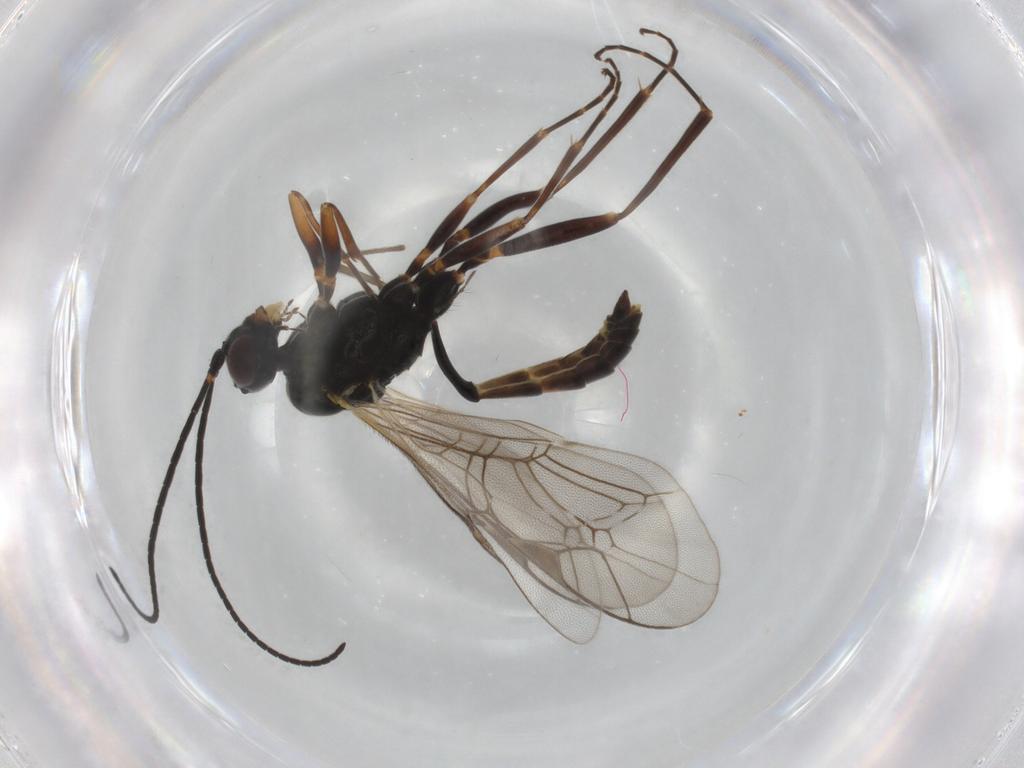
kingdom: Animalia
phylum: Arthropoda
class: Insecta
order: Hymenoptera
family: Ichneumonidae
